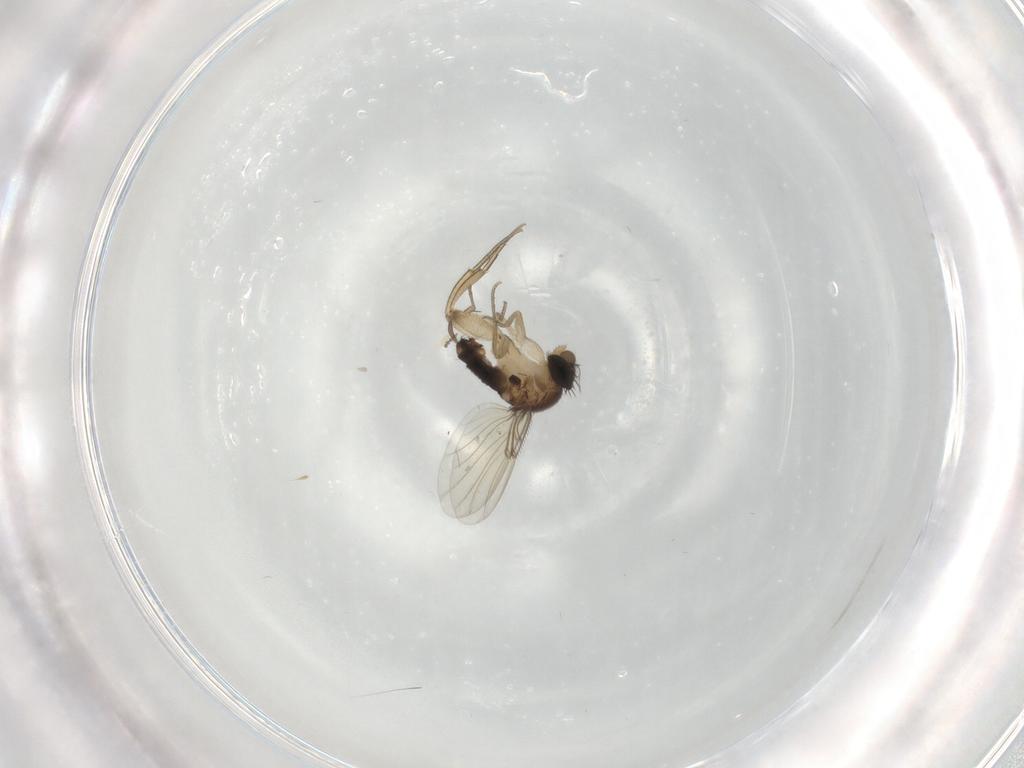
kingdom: Animalia
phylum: Arthropoda
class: Insecta
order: Diptera
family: Cecidomyiidae
